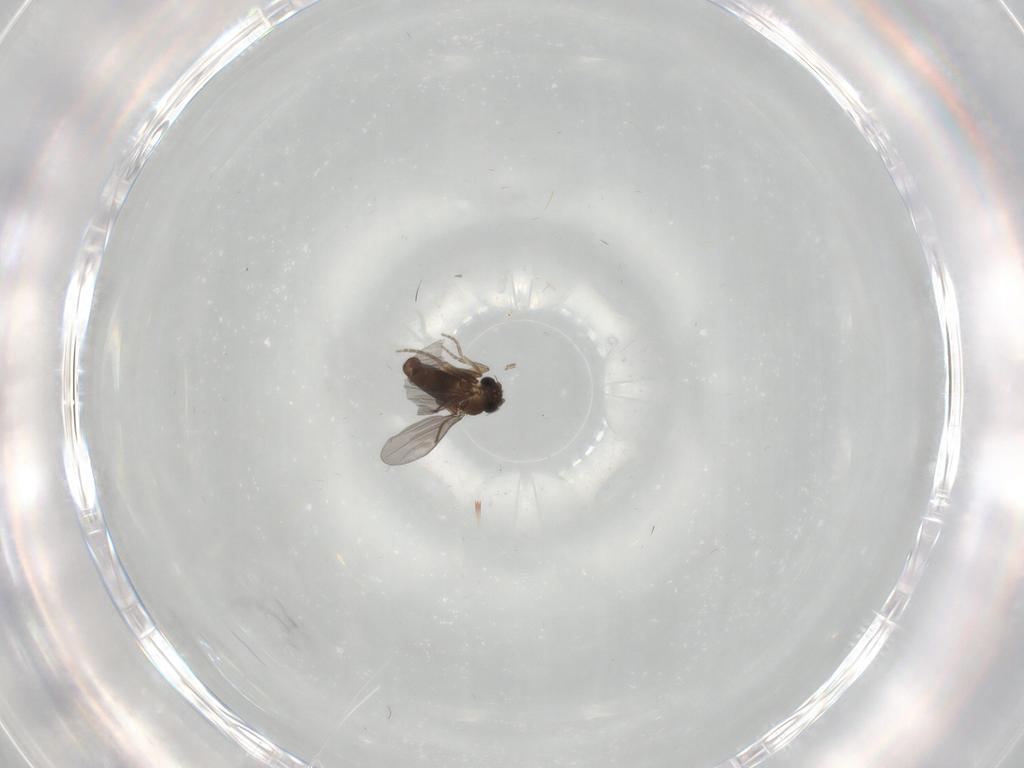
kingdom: Animalia
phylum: Arthropoda
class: Insecta
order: Diptera
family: Phoridae
